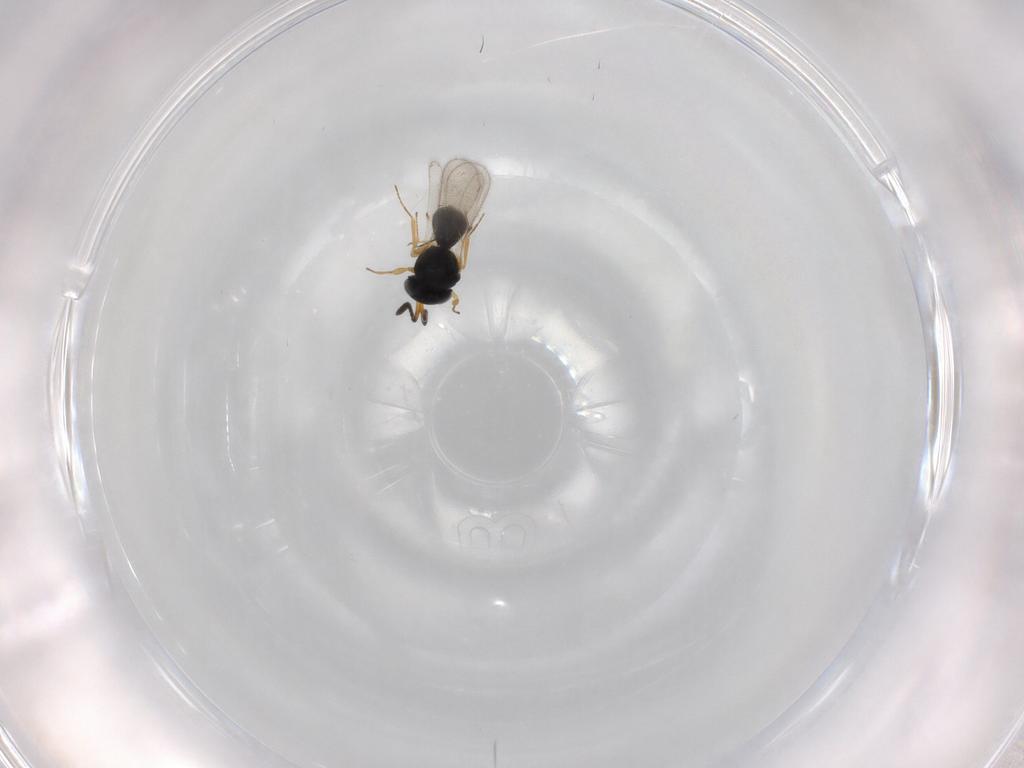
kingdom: Animalia
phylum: Arthropoda
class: Insecta
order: Hymenoptera
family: Scelionidae
